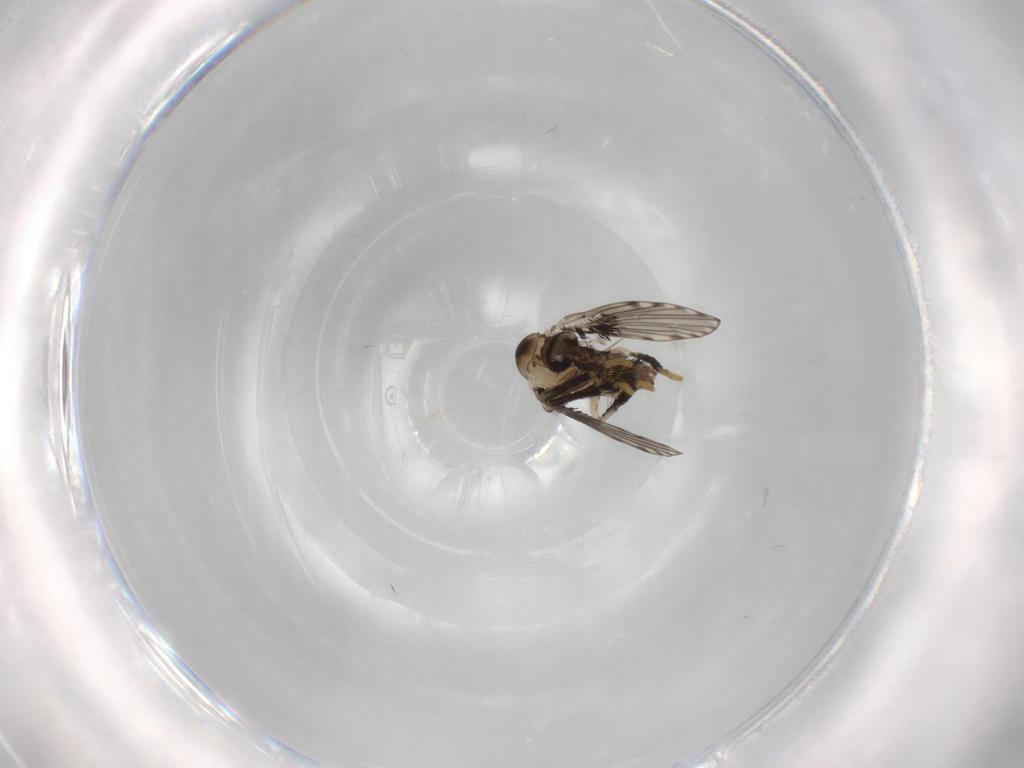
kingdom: Animalia
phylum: Arthropoda
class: Insecta
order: Diptera
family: Psychodidae
